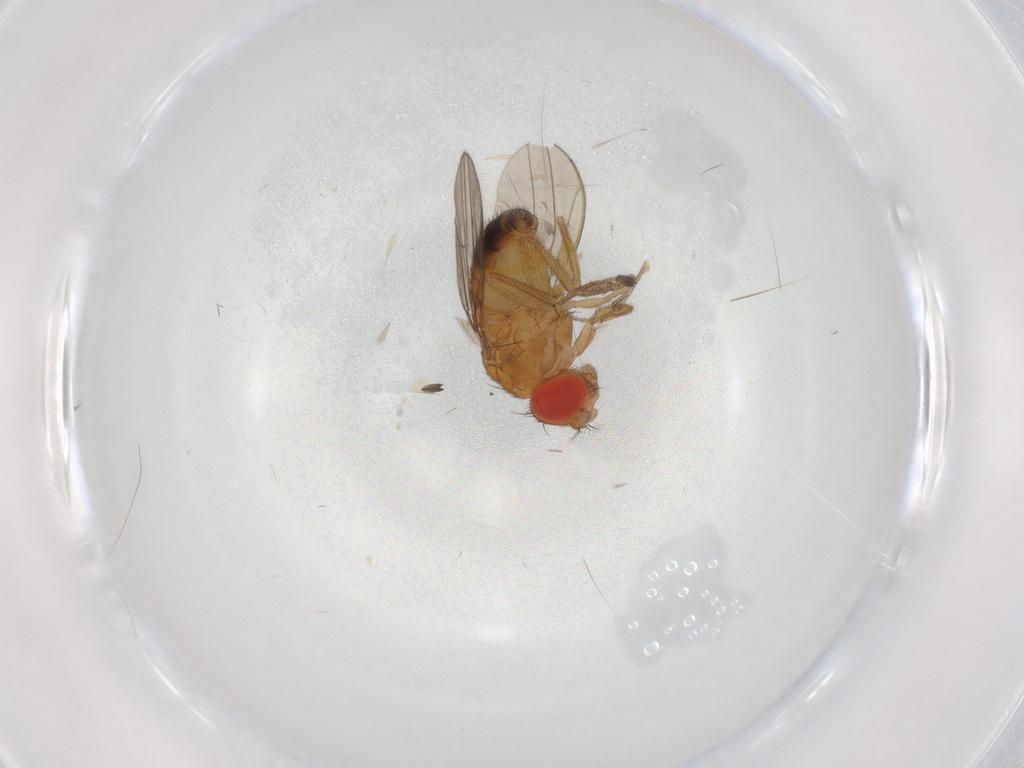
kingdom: Animalia
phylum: Arthropoda
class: Insecta
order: Diptera
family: Drosophilidae
